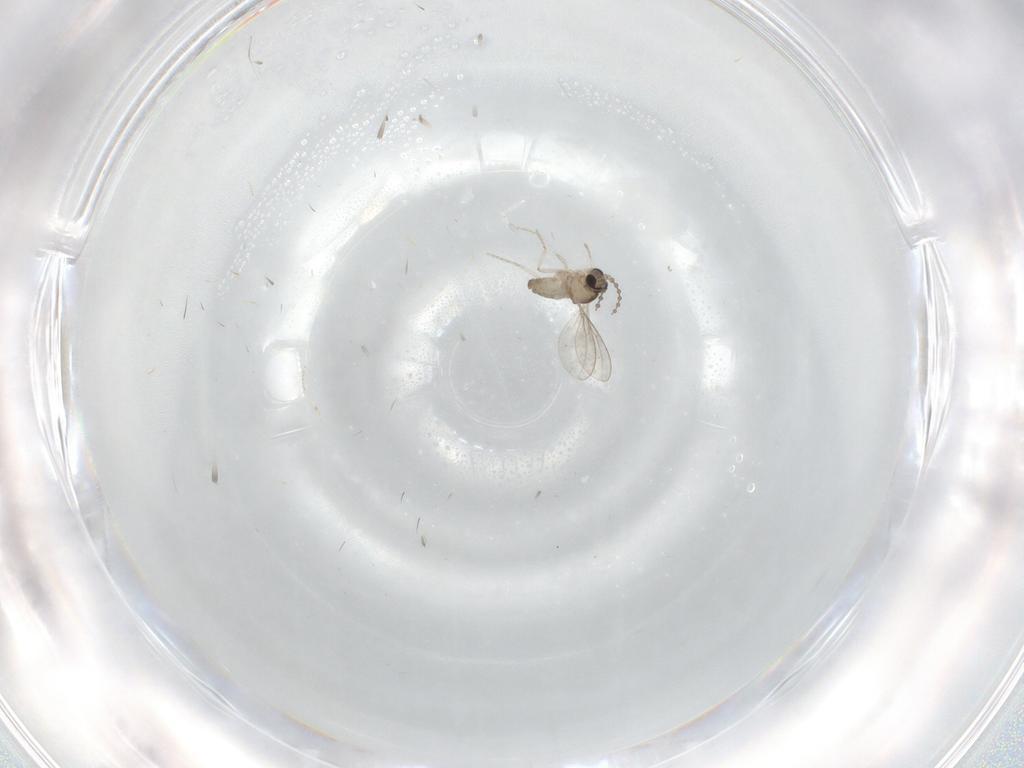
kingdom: Animalia
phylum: Arthropoda
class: Insecta
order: Diptera
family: Cecidomyiidae
